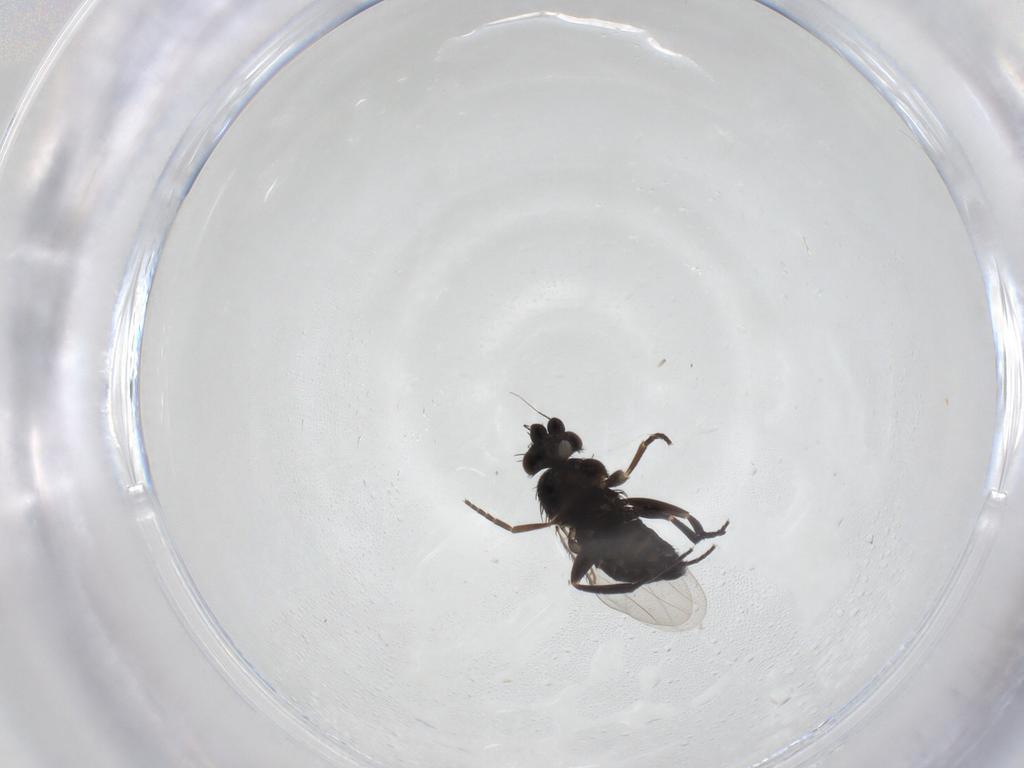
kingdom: Animalia
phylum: Arthropoda
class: Insecta
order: Diptera
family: Phoridae
